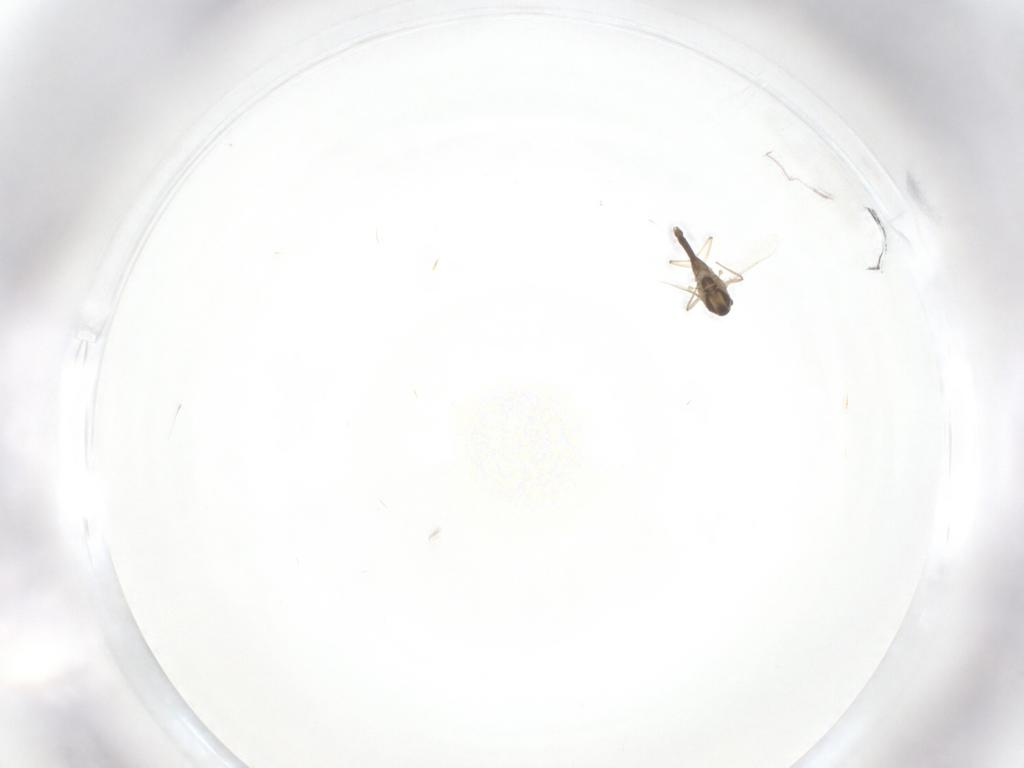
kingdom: Animalia
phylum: Arthropoda
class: Insecta
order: Diptera
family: Chironomidae
